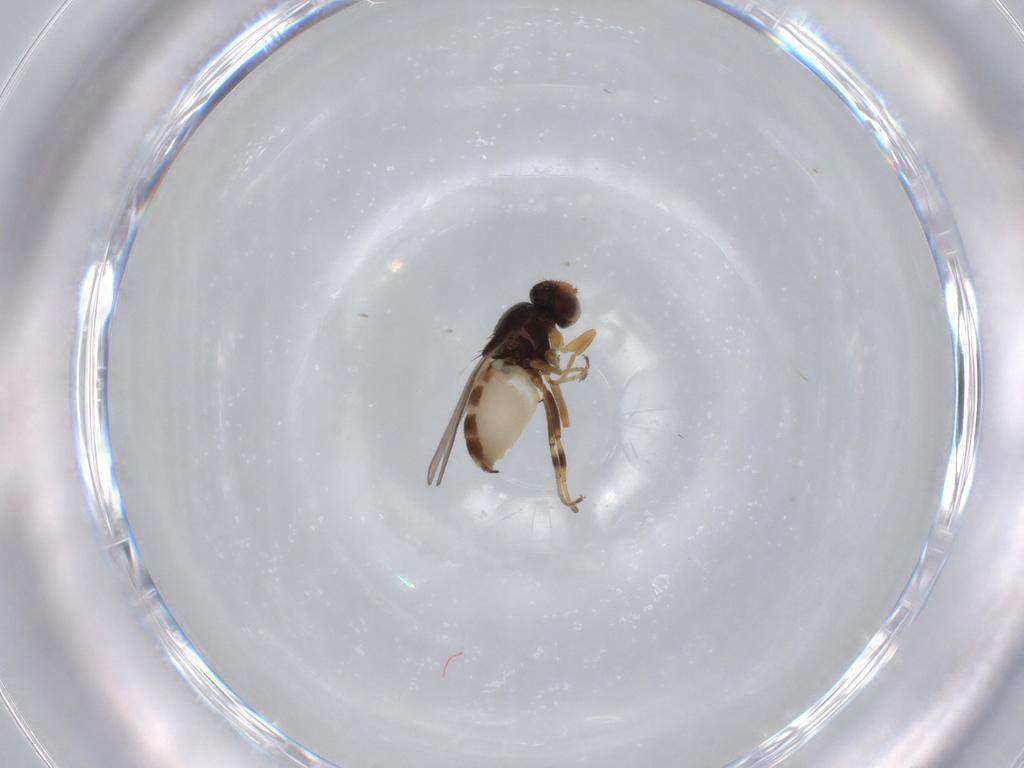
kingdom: Animalia
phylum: Arthropoda
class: Insecta
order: Diptera
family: Chloropidae
